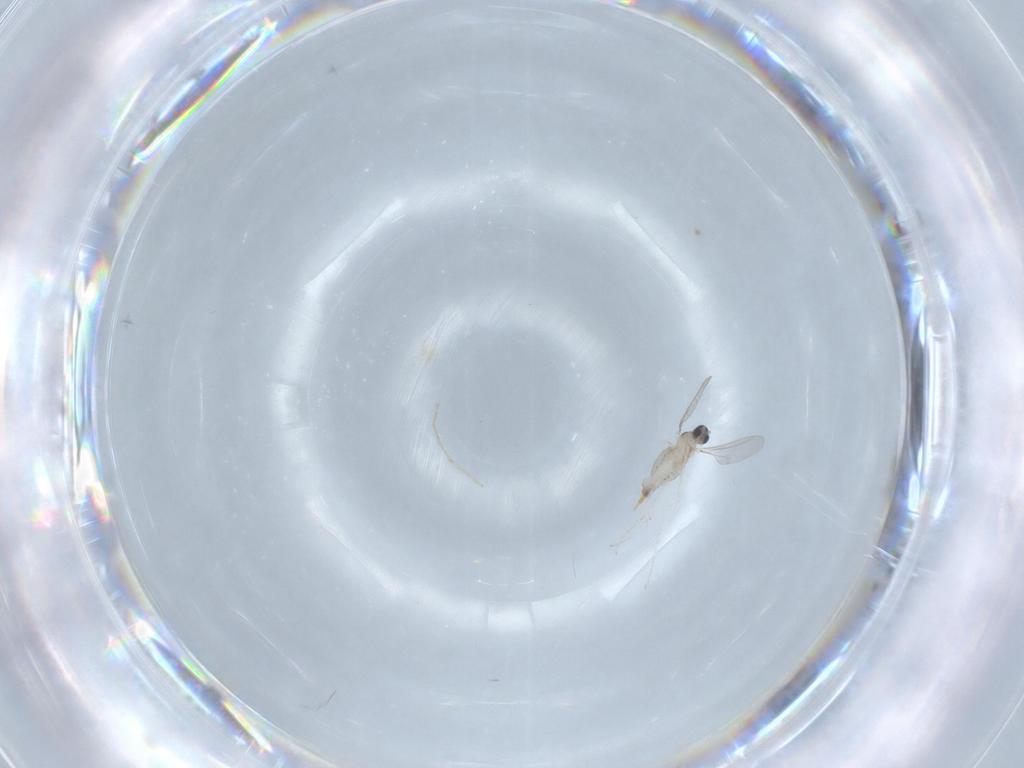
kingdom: Animalia
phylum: Arthropoda
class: Insecta
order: Diptera
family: Cecidomyiidae
